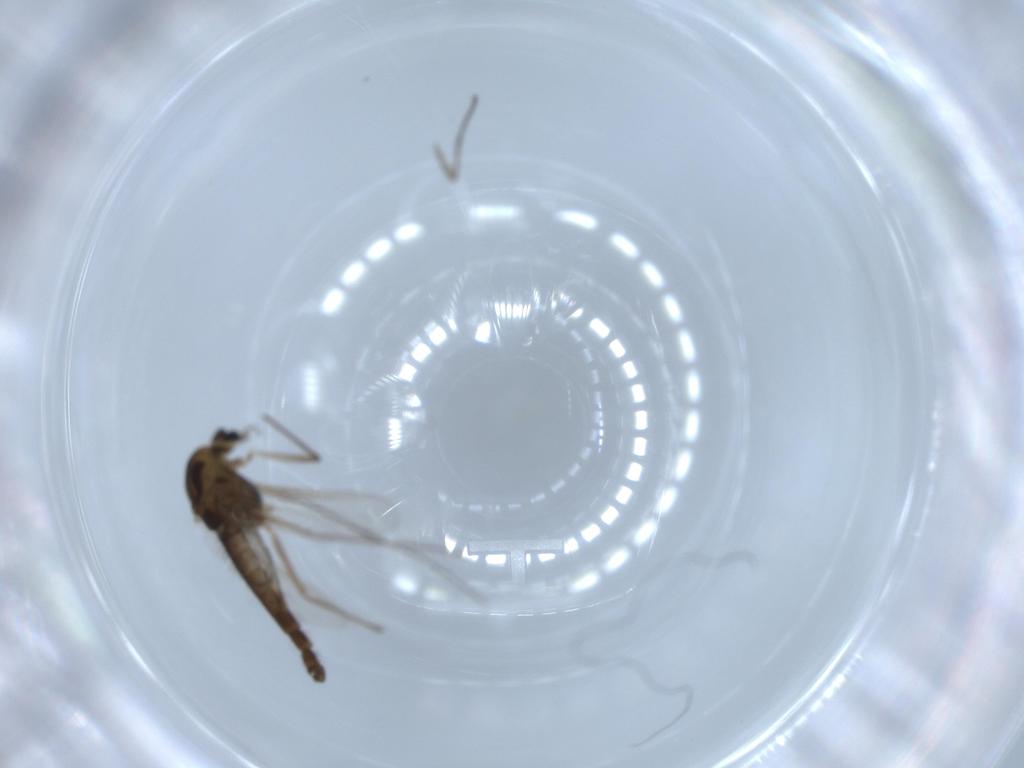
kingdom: Animalia
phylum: Arthropoda
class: Insecta
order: Diptera
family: Chironomidae
